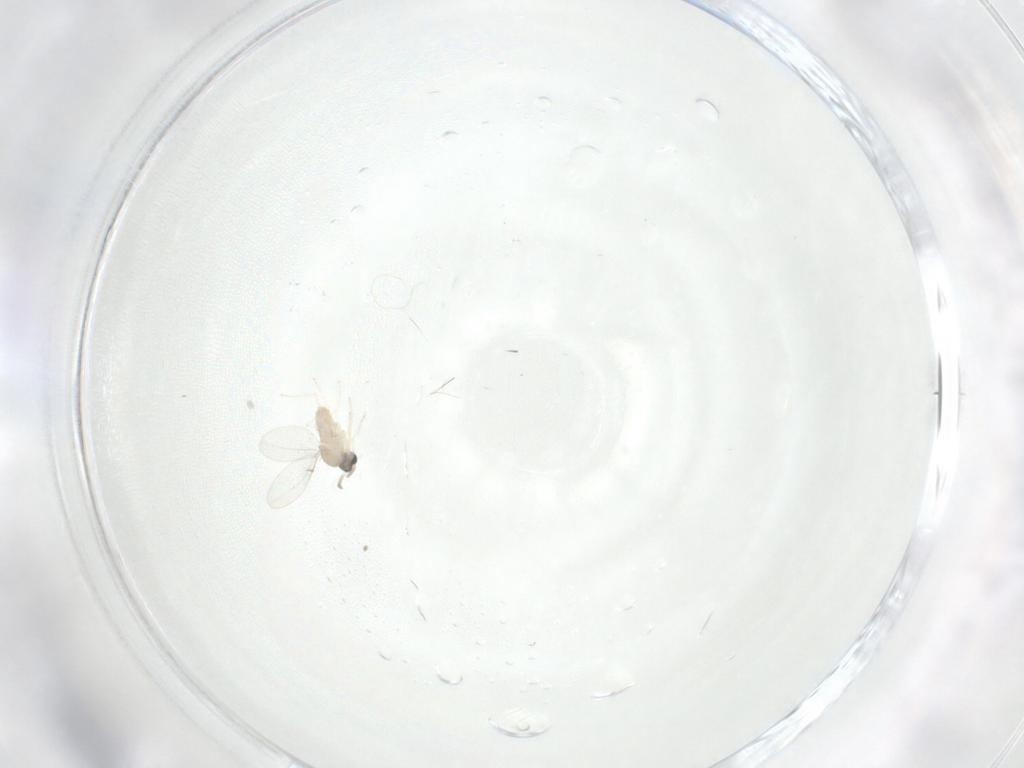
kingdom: Animalia
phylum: Arthropoda
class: Insecta
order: Diptera
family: Cecidomyiidae
